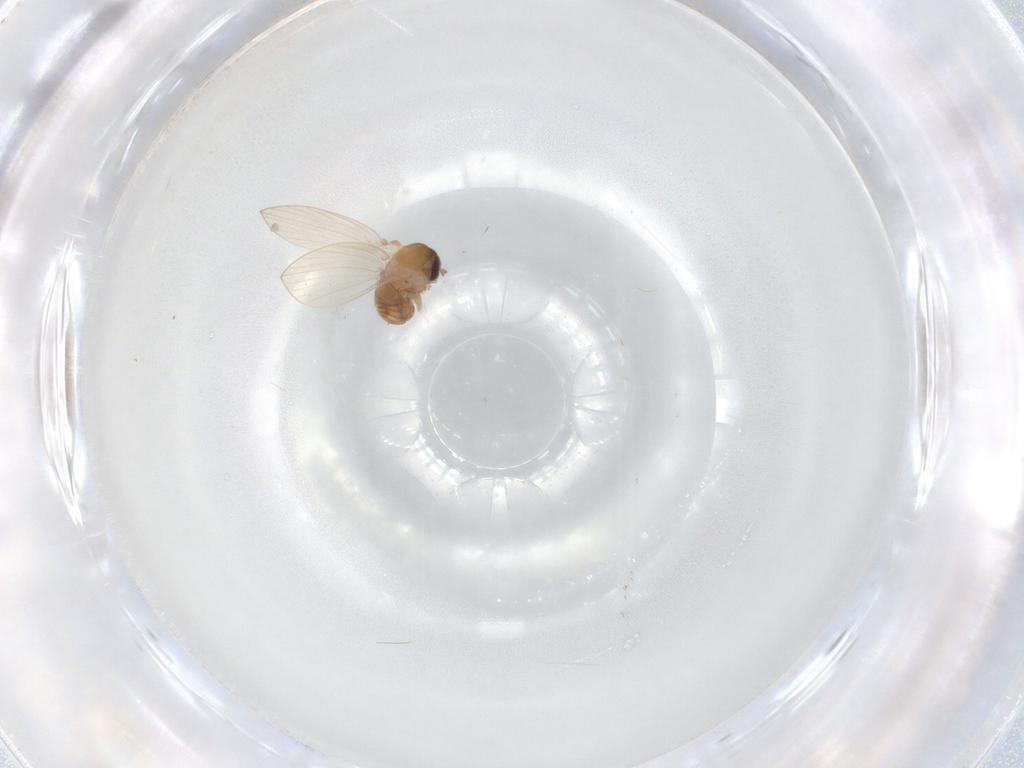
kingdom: Animalia
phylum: Arthropoda
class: Insecta
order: Diptera
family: Psychodidae
